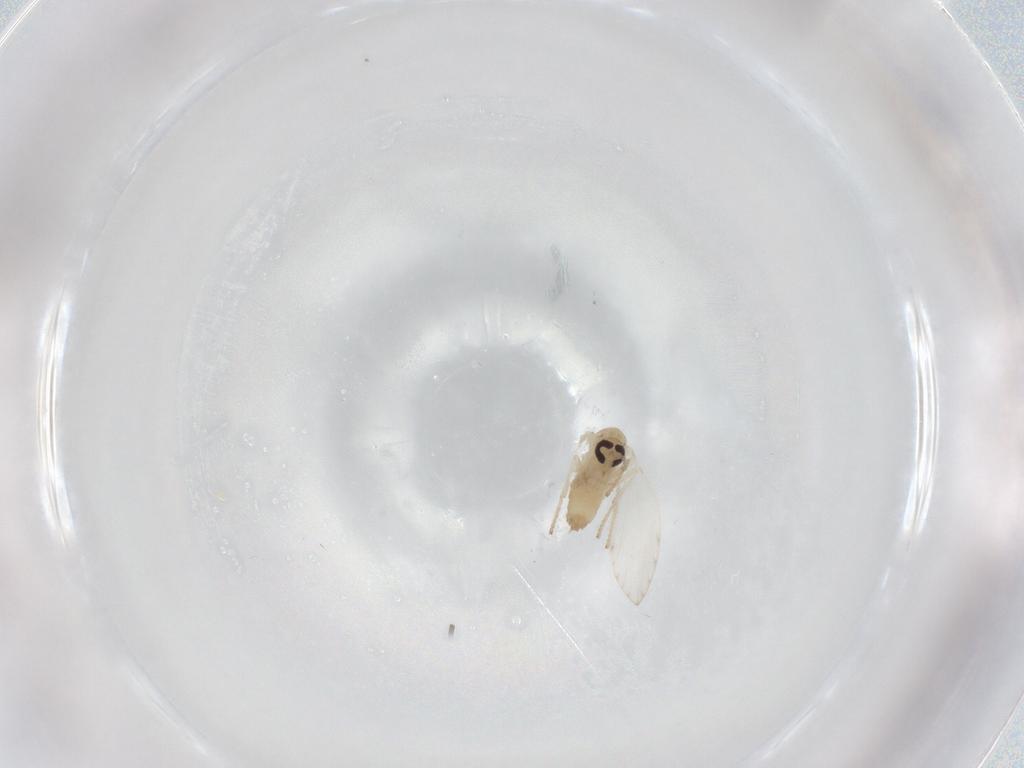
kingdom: Animalia
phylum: Arthropoda
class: Insecta
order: Diptera
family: Psychodidae
